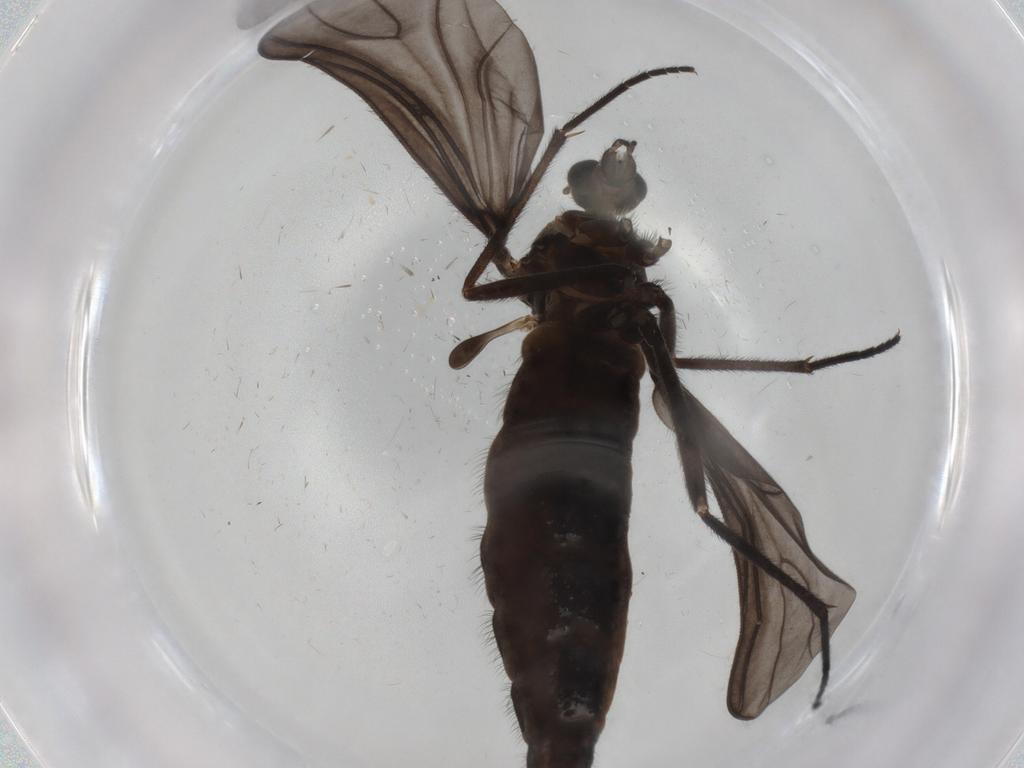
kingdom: Animalia
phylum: Arthropoda
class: Insecta
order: Diptera
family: Sciaridae
